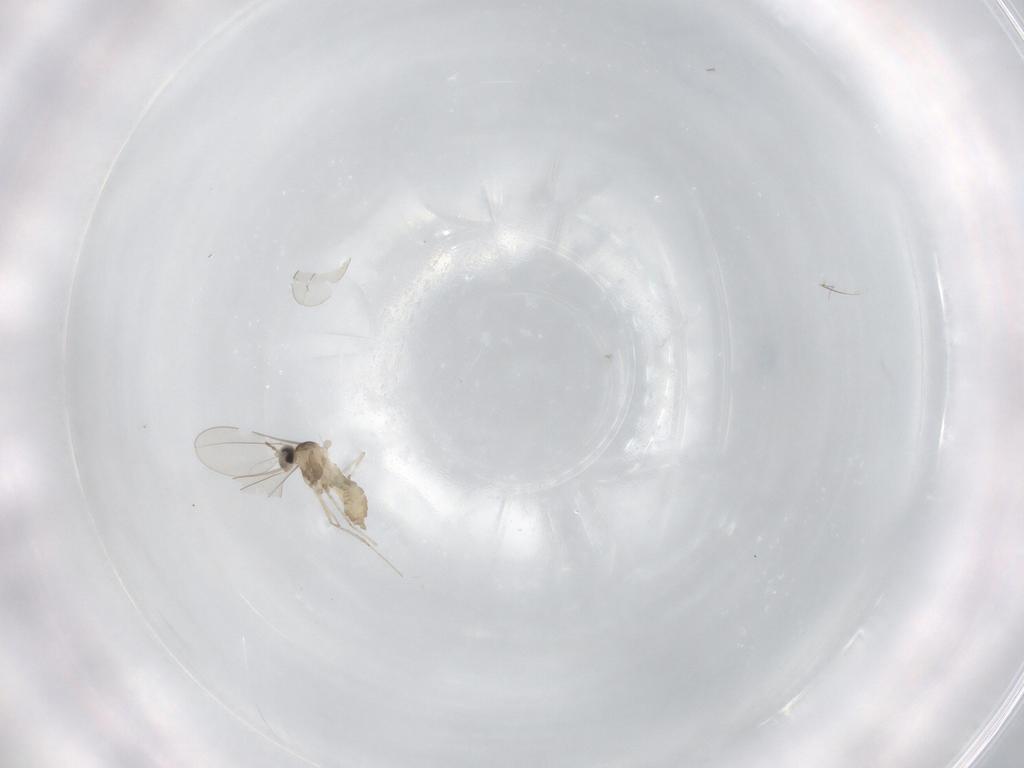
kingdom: Animalia
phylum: Arthropoda
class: Insecta
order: Diptera
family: Cecidomyiidae
